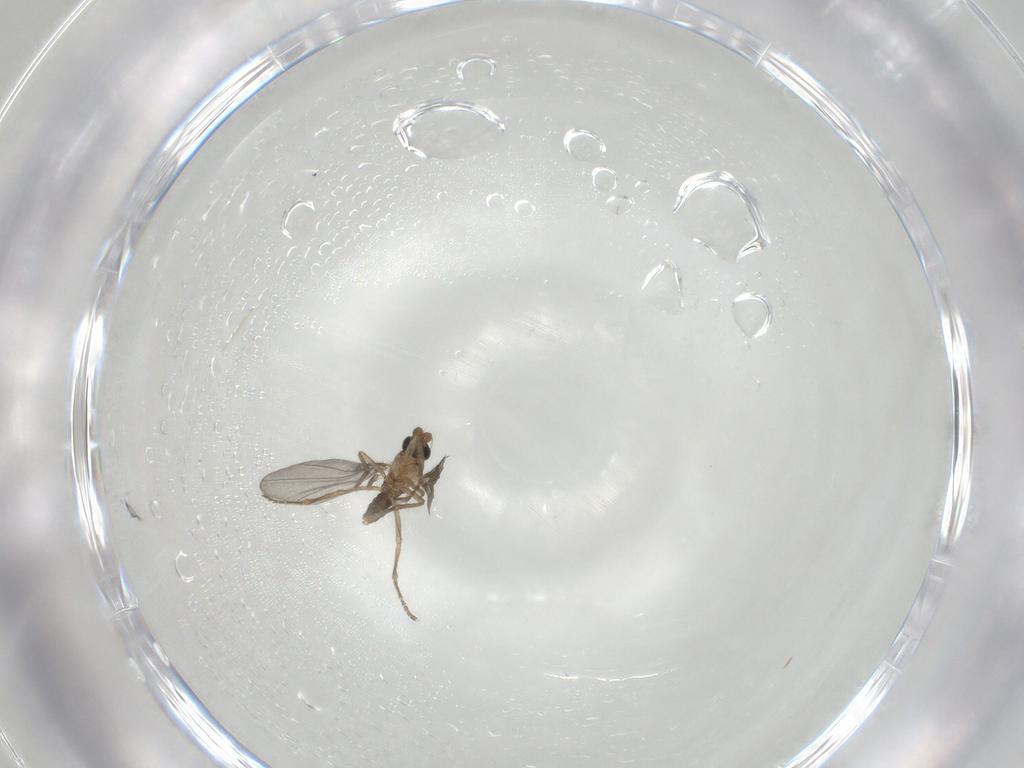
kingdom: Animalia
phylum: Arthropoda
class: Insecta
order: Diptera
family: Phoridae
